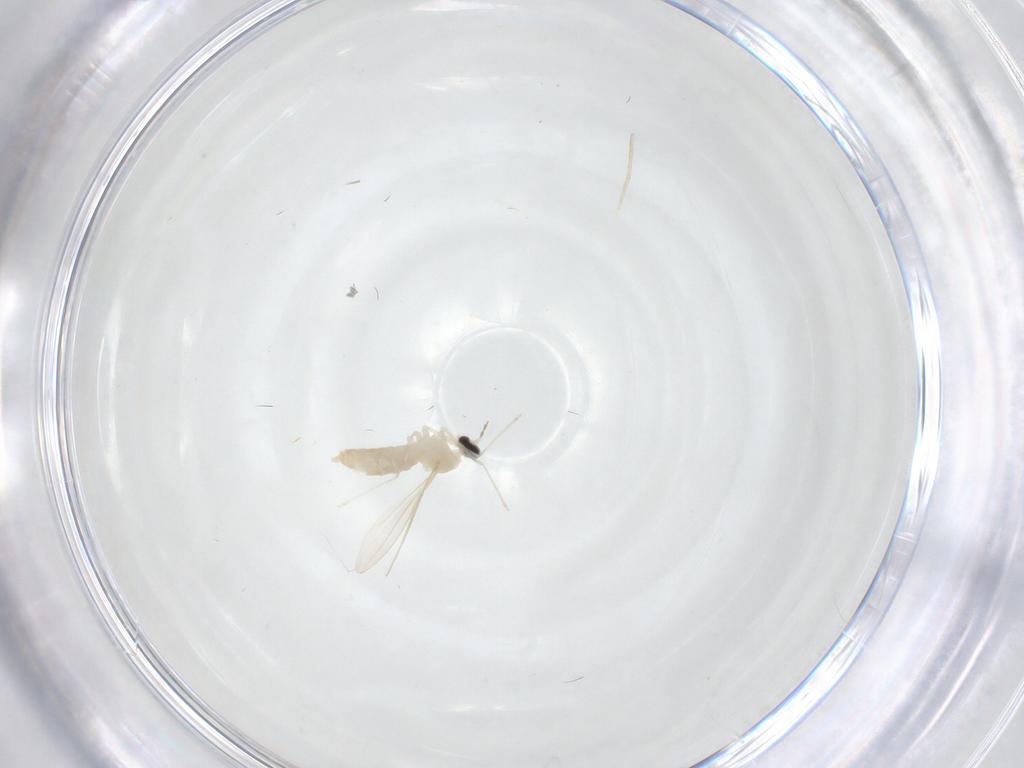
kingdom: Animalia
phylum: Arthropoda
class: Insecta
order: Diptera
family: Cecidomyiidae
